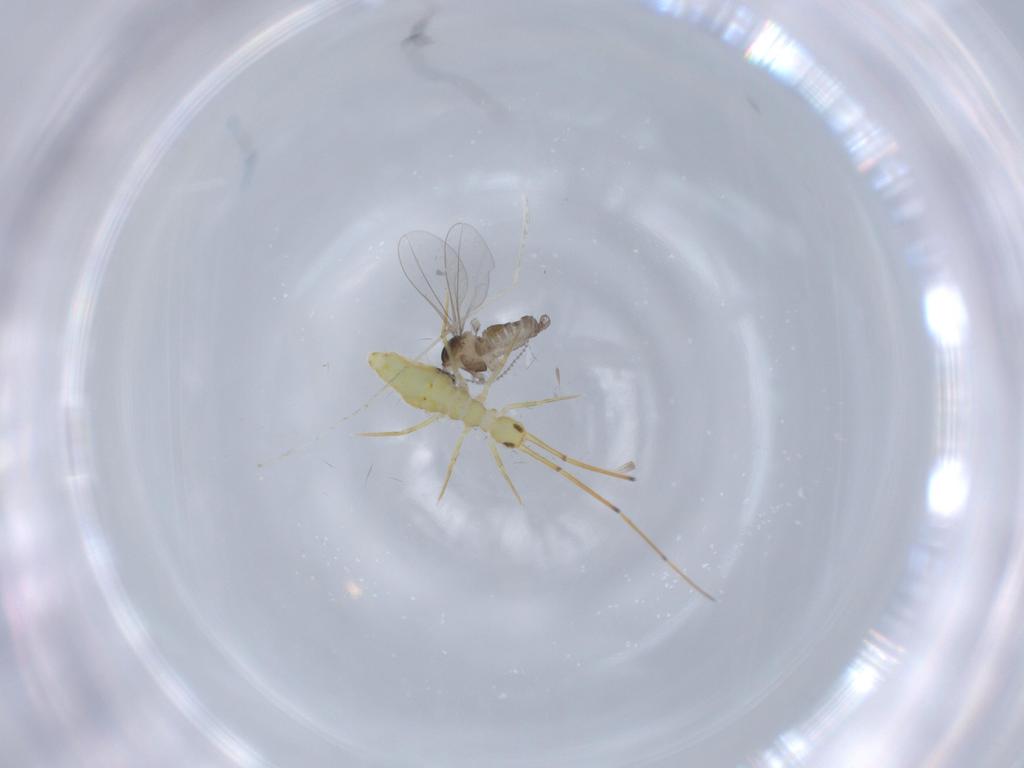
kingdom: Animalia
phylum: Arthropoda
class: Insecta
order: Diptera
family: Cecidomyiidae
